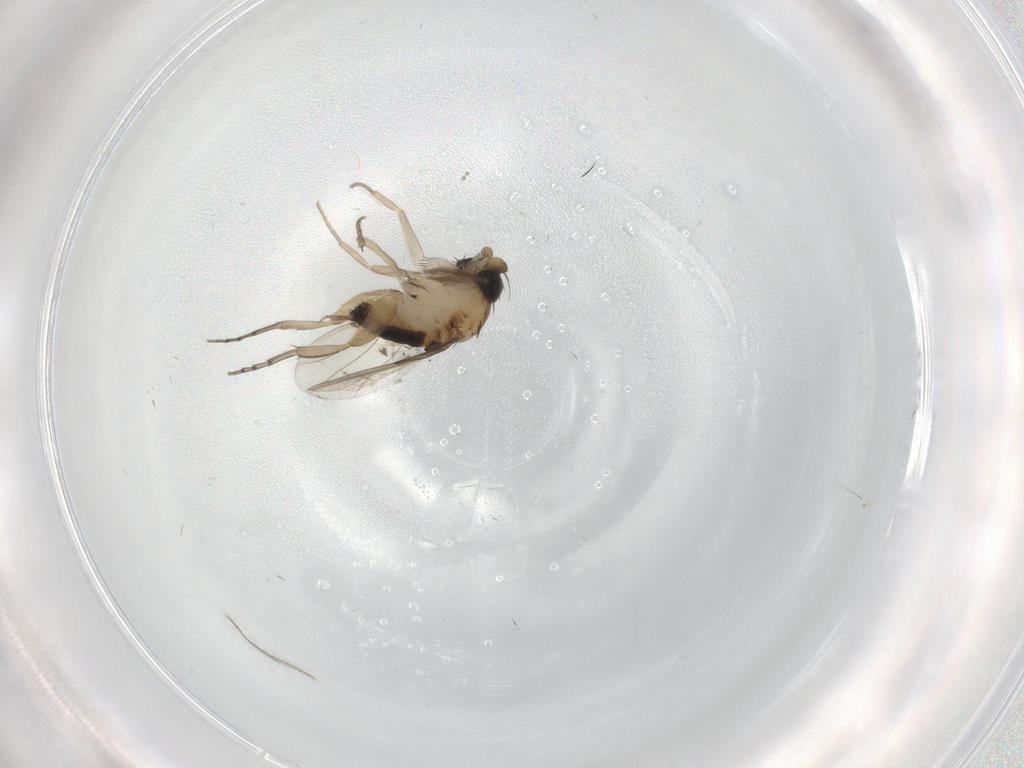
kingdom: Animalia
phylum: Arthropoda
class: Insecta
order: Diptera
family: Phoridae
